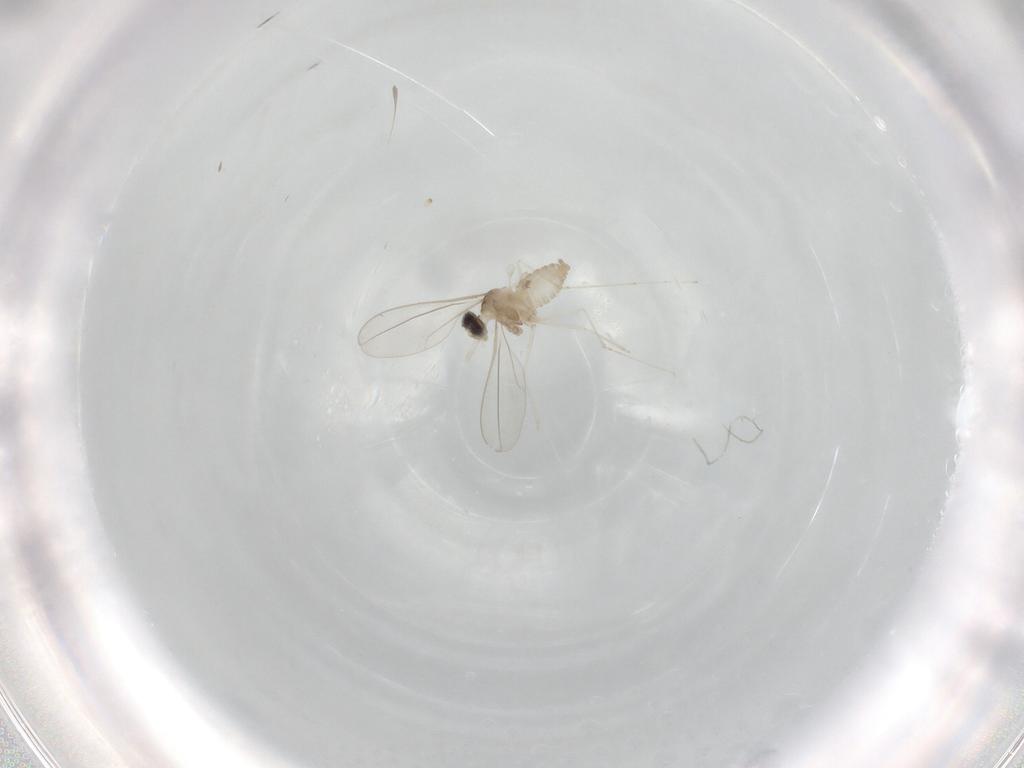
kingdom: Animalia
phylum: Arthropoda
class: Insecta
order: Diptera
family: Cecidomyiidae
